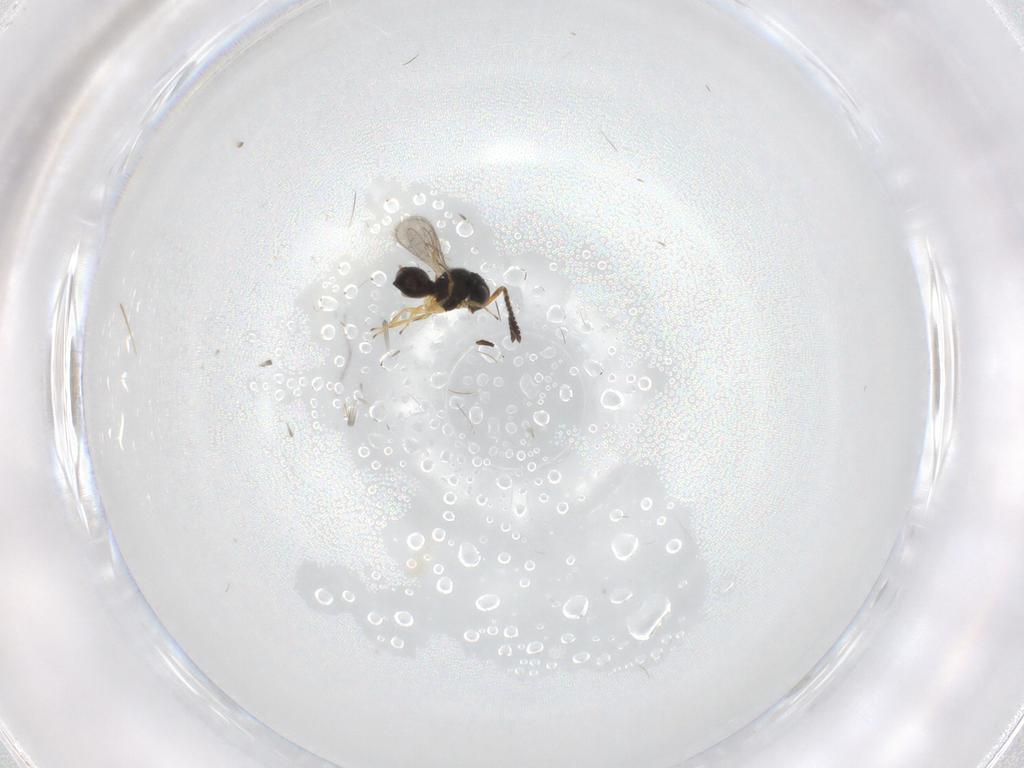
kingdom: Animalia
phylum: Arthropoda
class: Insecta
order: Hymenoptera
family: Scelionidae
